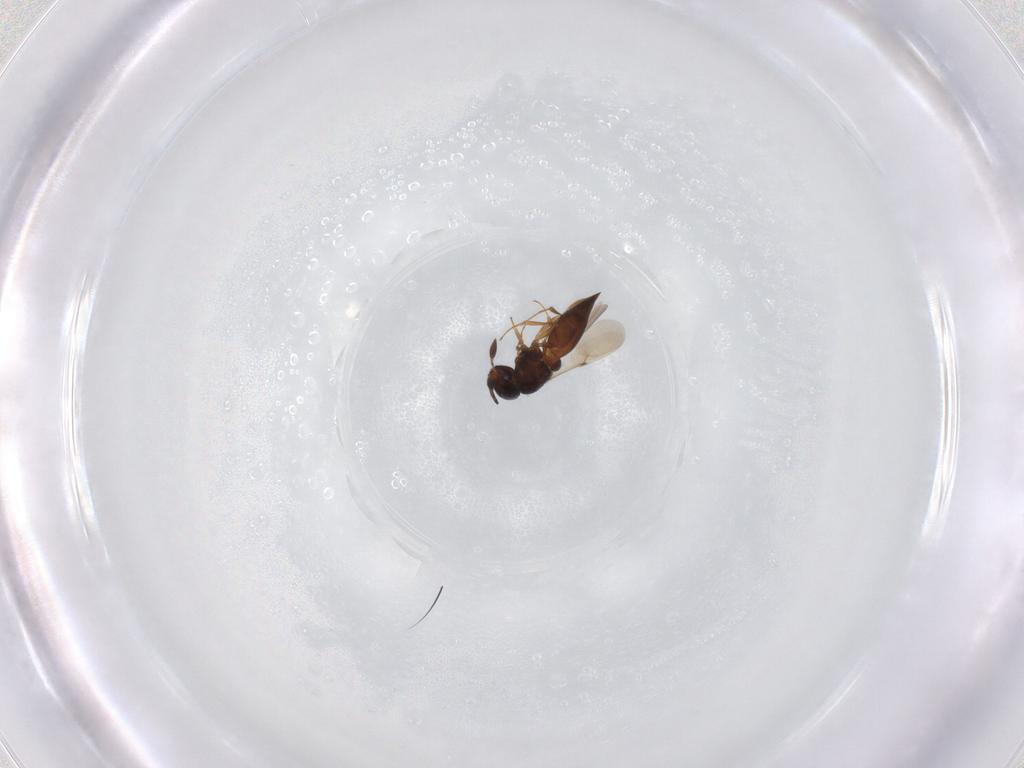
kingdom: Animalia
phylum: Arthropoda
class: Insecta
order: Hymenoptera
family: Scelionidae
